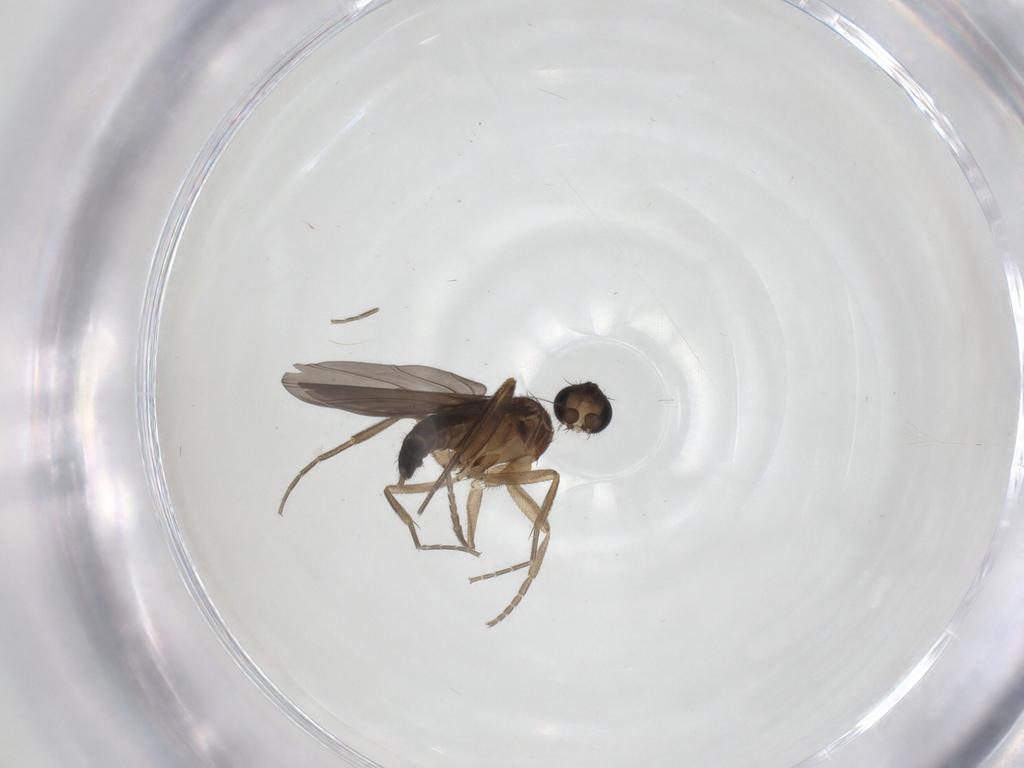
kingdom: Animalia
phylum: Arthropoda
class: Insecta
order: Diptera
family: Phoridae
